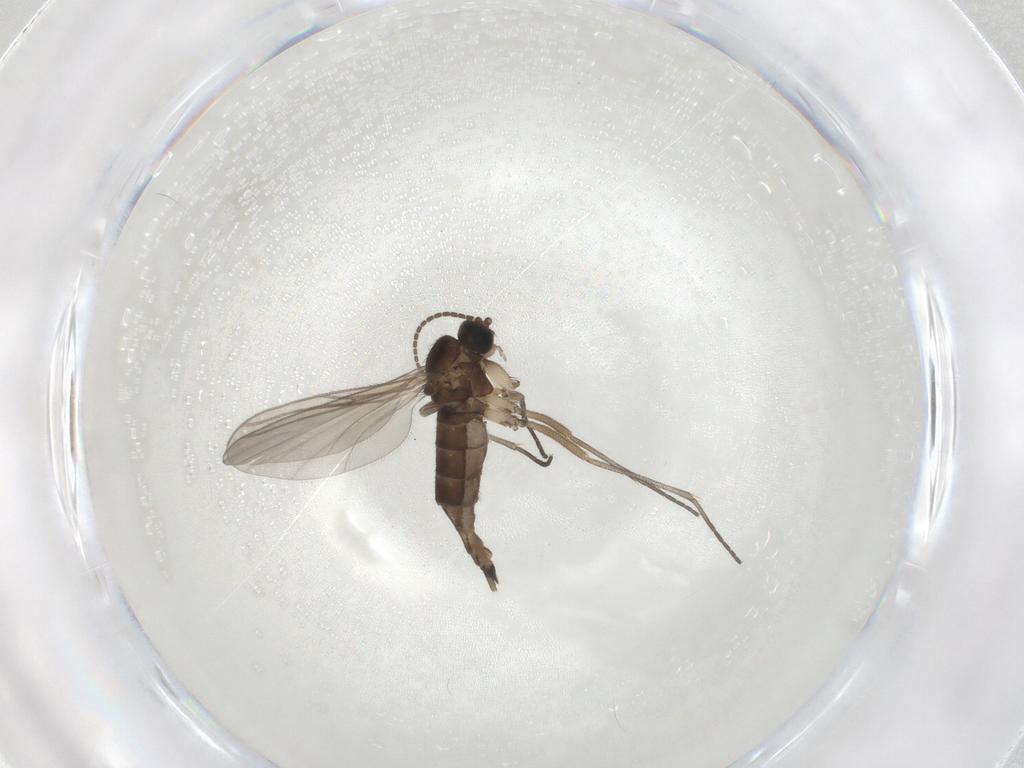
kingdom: Animalia
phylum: Arthropoda
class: Insecta
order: Diptera
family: Sciaridae
